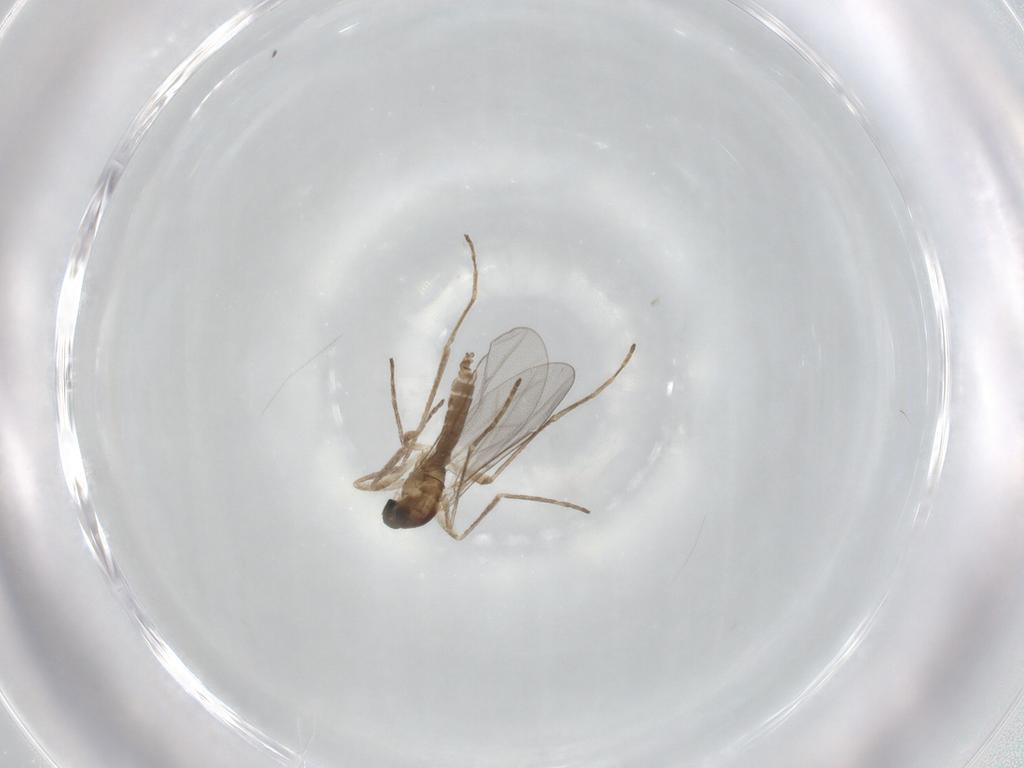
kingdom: Animalia
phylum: Arthropoda
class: Insecta
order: Diptera
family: Cecidomyiidae
